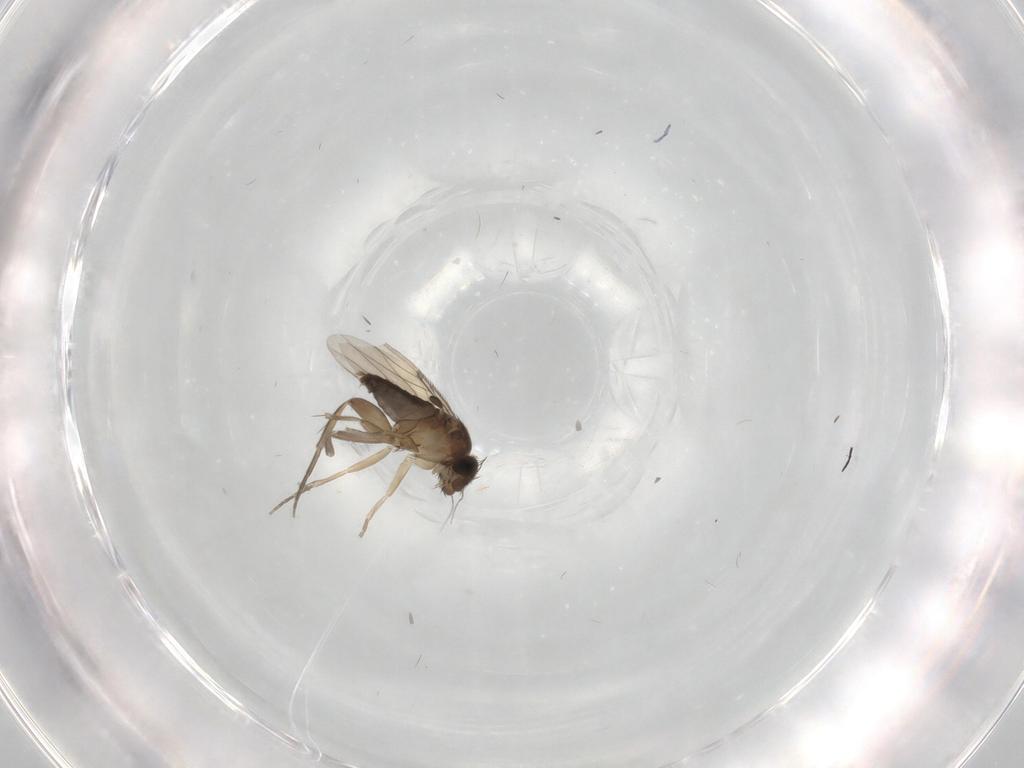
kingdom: Animalia
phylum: Arthropoda
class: Insecta
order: Diptera
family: Phoridae
